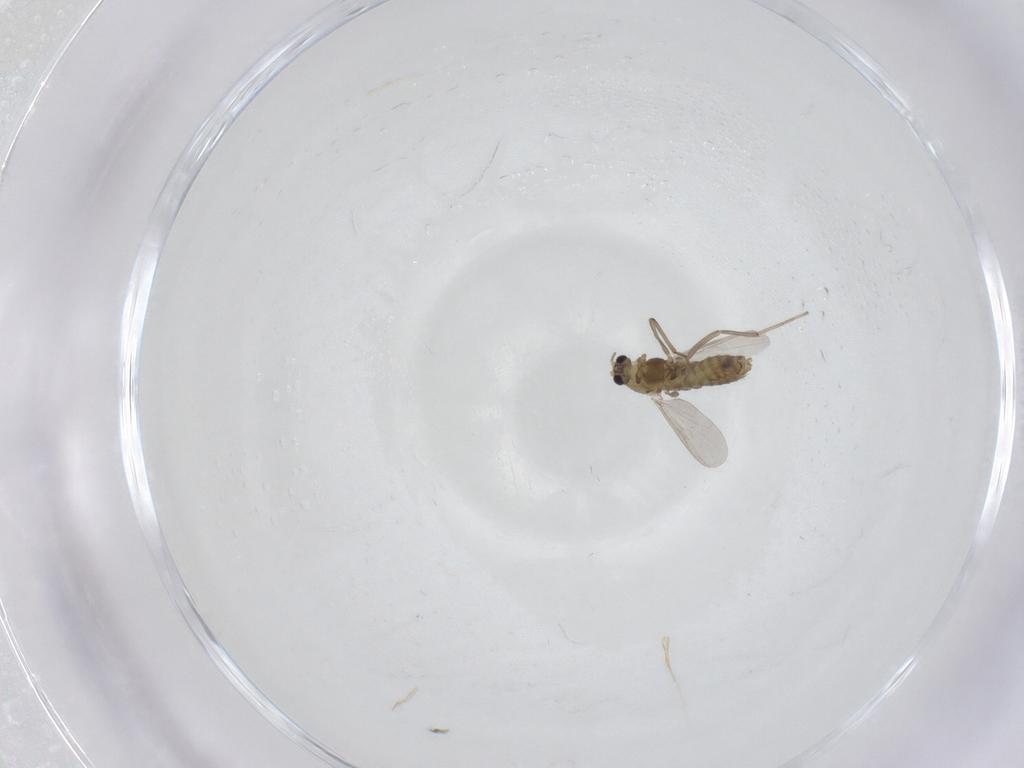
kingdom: Animalia
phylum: Arthropoda
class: Insecta
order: Diptera
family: Chironomidae
